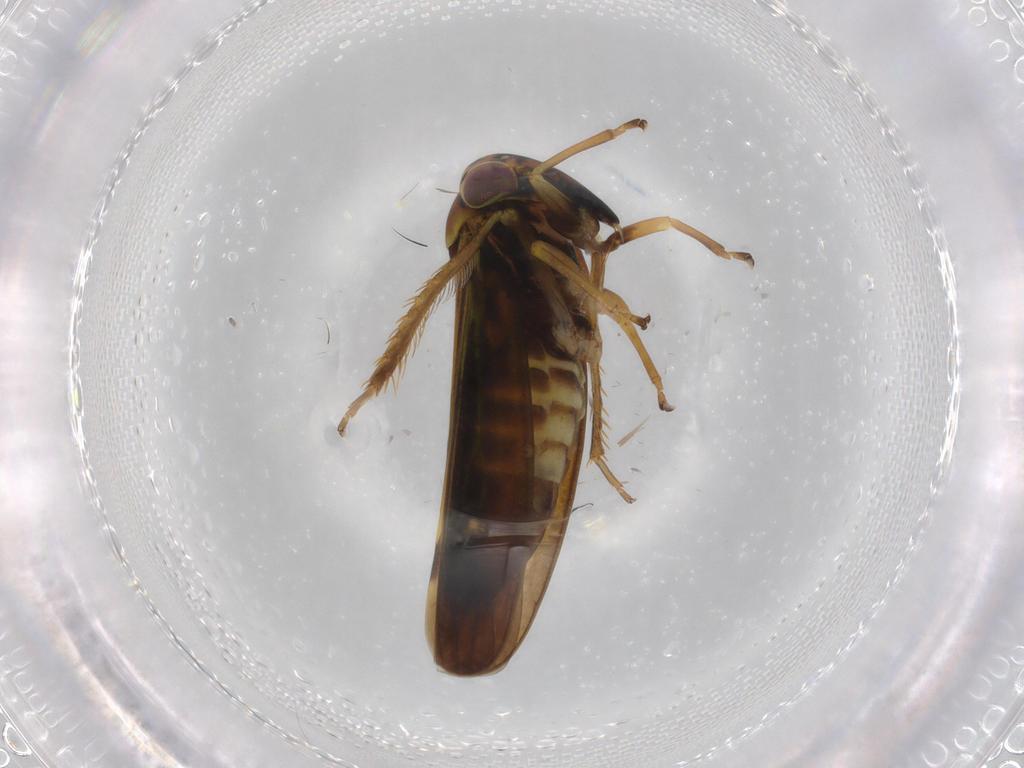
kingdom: Animalia
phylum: Arthropoda
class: Insecta
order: Hemiptera
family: Cicadellidae
